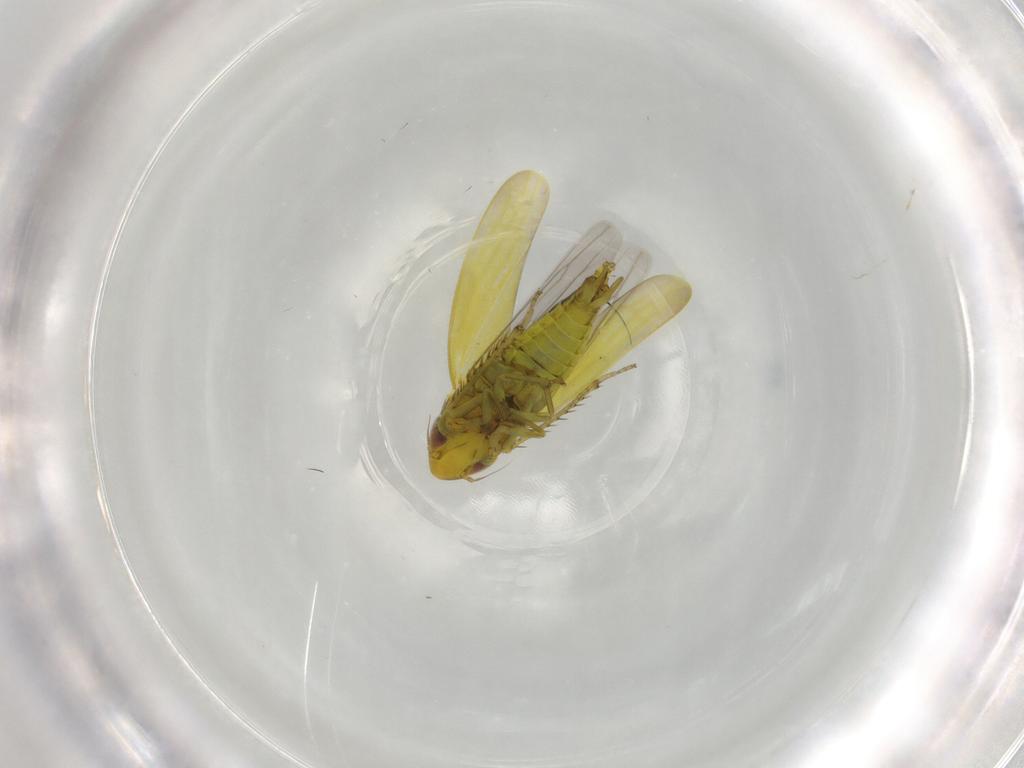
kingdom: Animalia
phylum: Arthropoda
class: Insecta
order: Hemiptera
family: Cicadellidae
